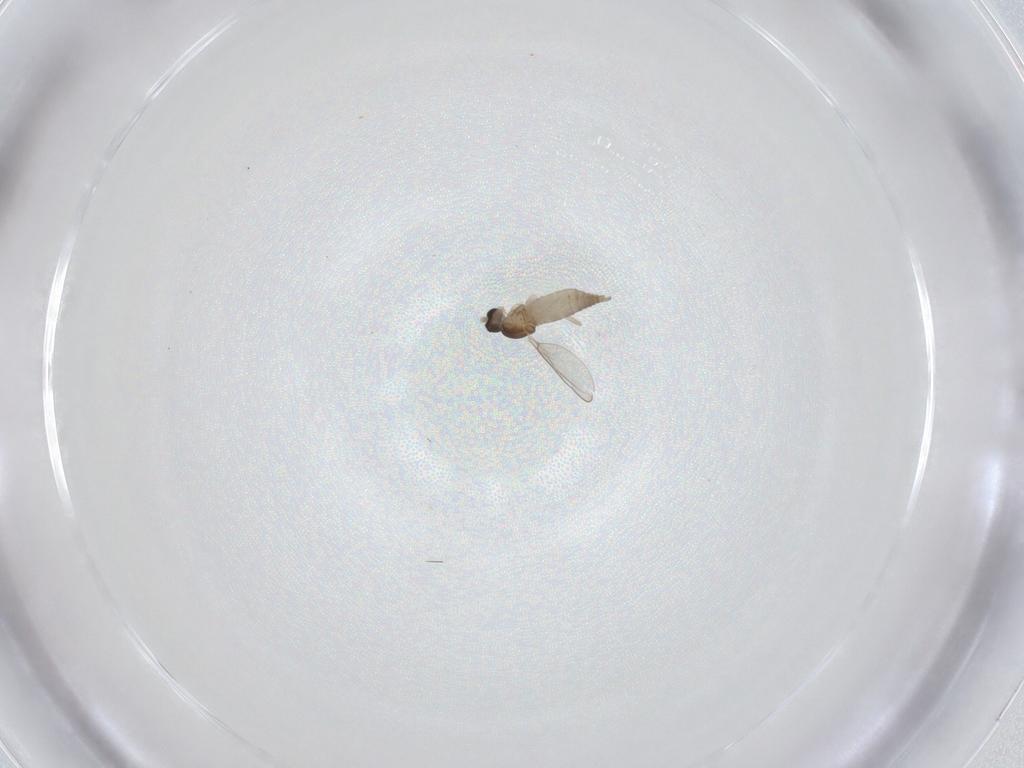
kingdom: Animalia
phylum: Arthropoda
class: Insecta
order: Diptera
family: Cecidomyiidae
